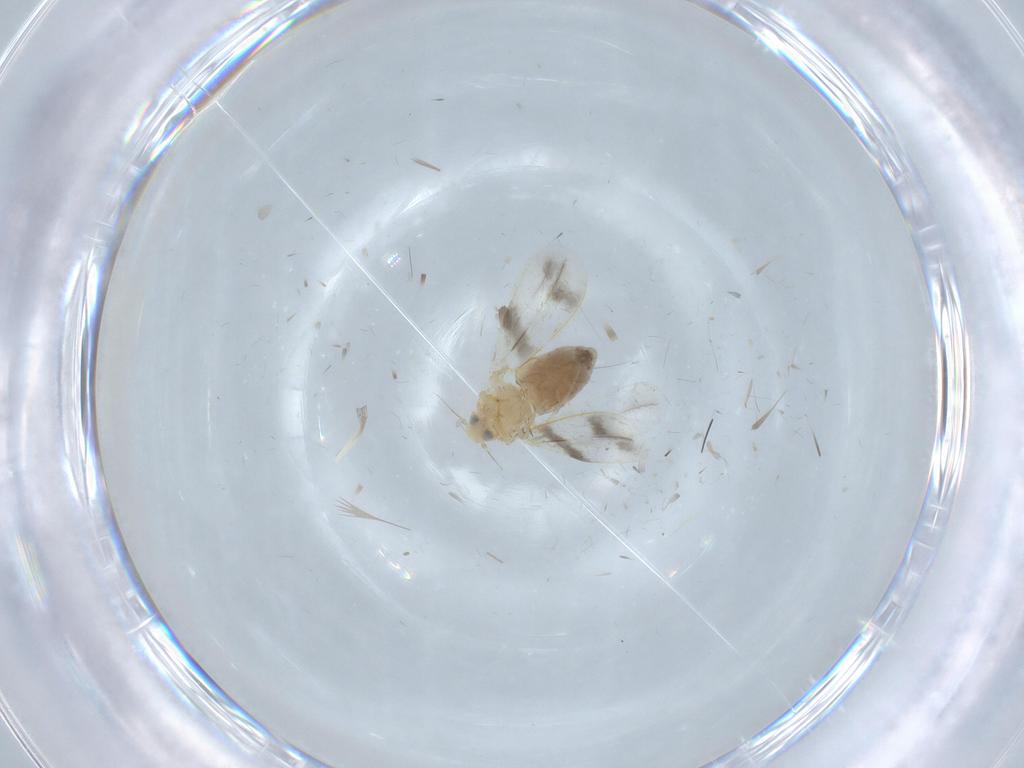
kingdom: Animalia
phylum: Arthropoda
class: Insecta
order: Hemiptera
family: Aleyrodidae
